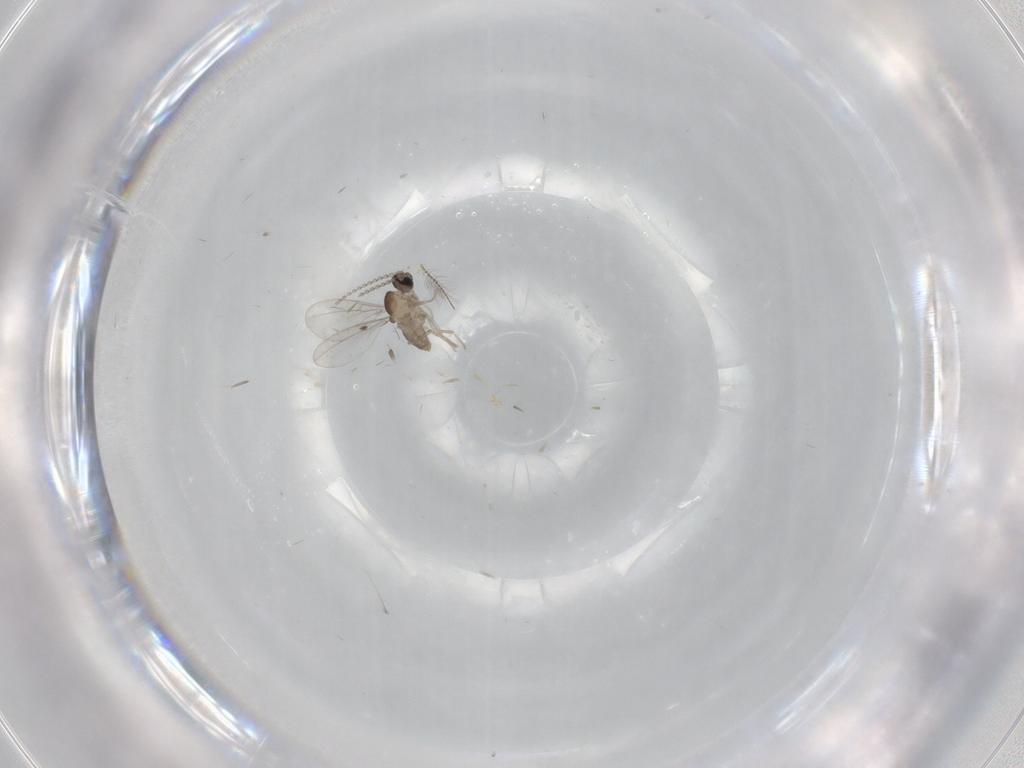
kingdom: Animalia
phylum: Arthropoda
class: Insecta
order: Diptera
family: Cecidomyiidae
